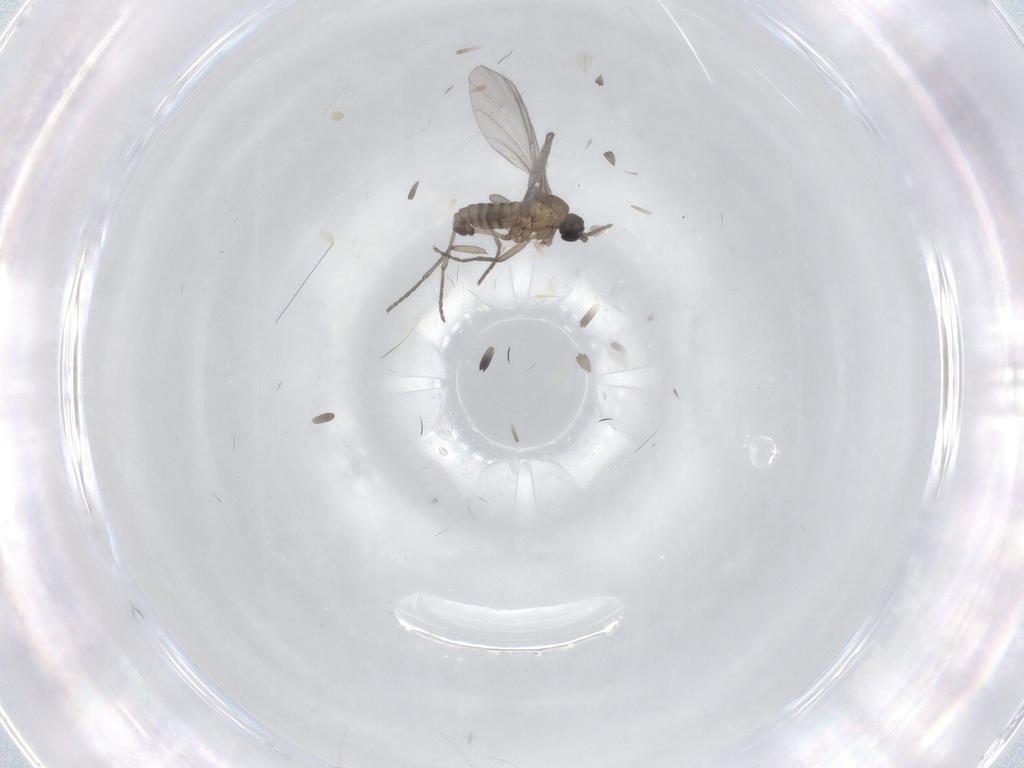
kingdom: Animalia
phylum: Arthropoda
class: Insecta
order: Diptera
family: Sciaridae
